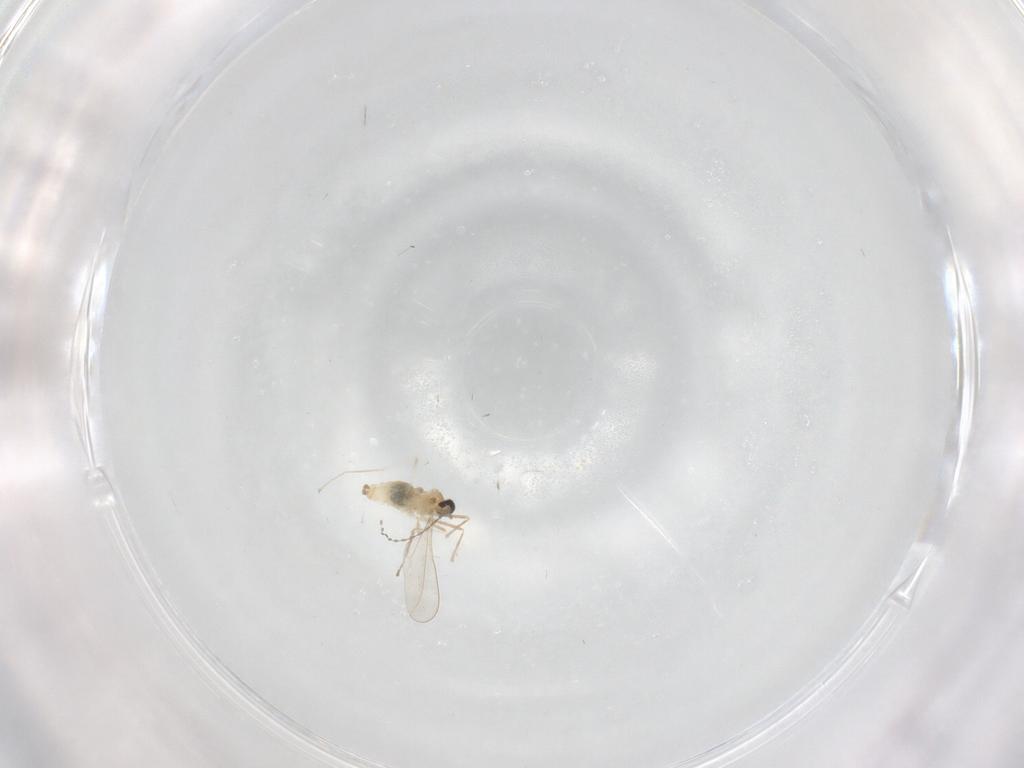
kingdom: Animalia
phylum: Arthropoda
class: Insecta
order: Diptera
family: Cecidomyiidae
